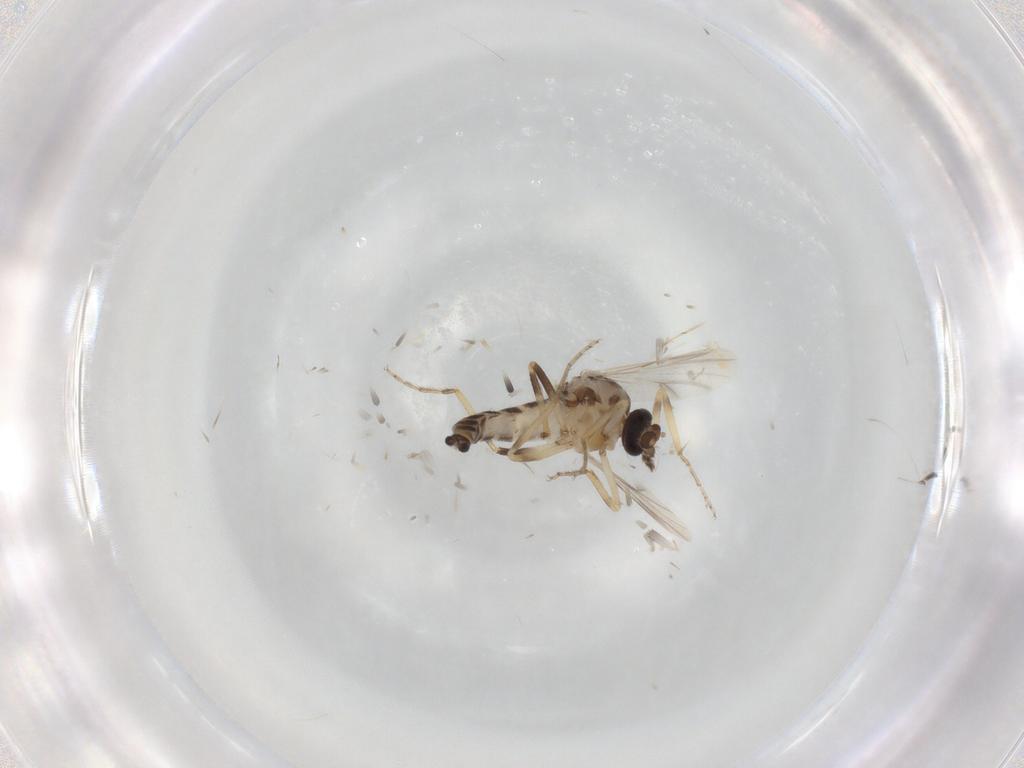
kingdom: Animalia
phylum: Arthropoda
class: Insecta
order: Diptera
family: Ceratopogonidae
